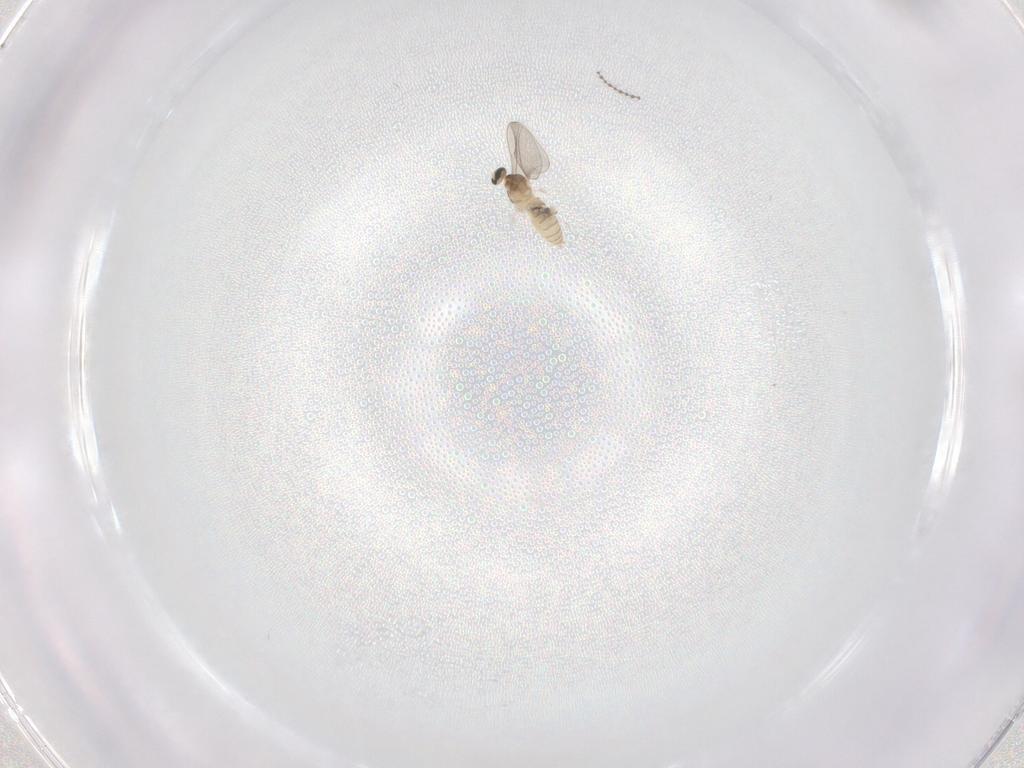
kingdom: Animalia
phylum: Arthropoda
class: Insecta
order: Diptera
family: Cecidomyiidae
